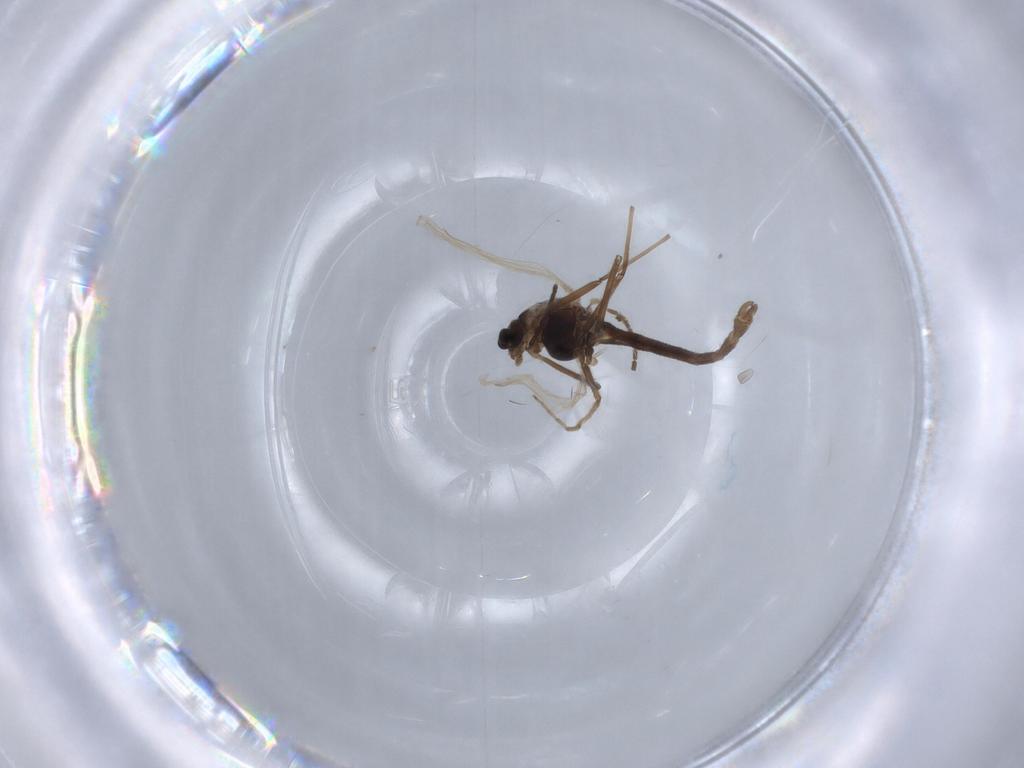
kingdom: Animalia
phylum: Arthropoda
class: Insecta
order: Diptera
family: Chironomidae
